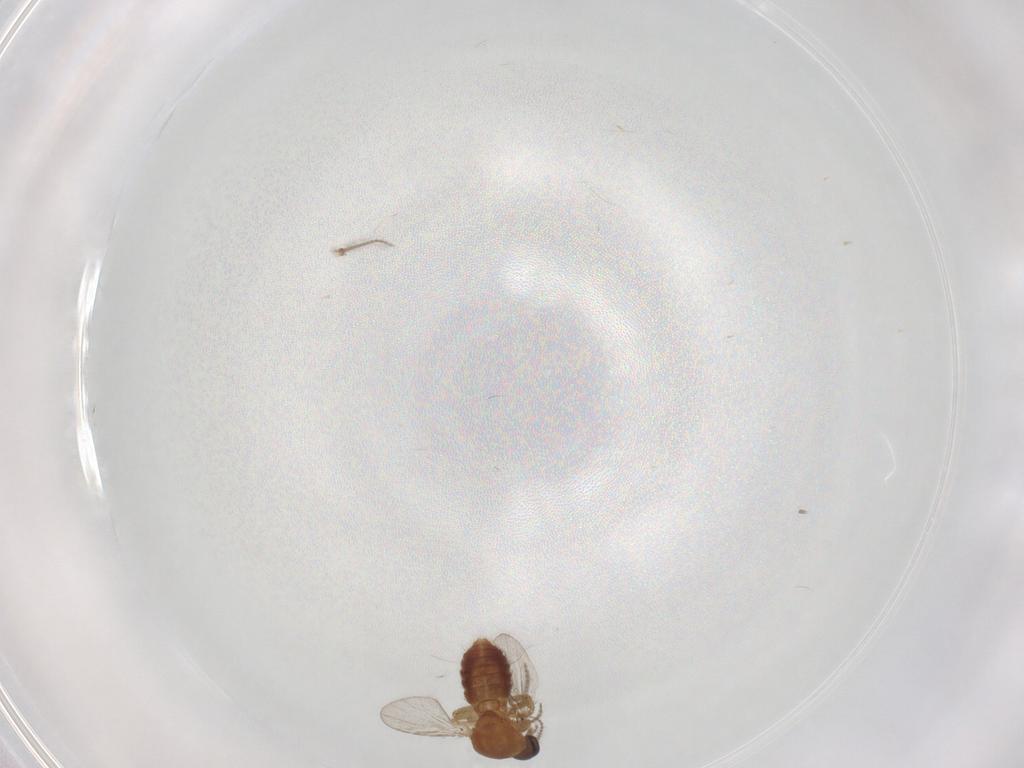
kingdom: Animalia
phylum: Arthropoda
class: Insecta
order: Diptera
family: Ceratopogonidae
